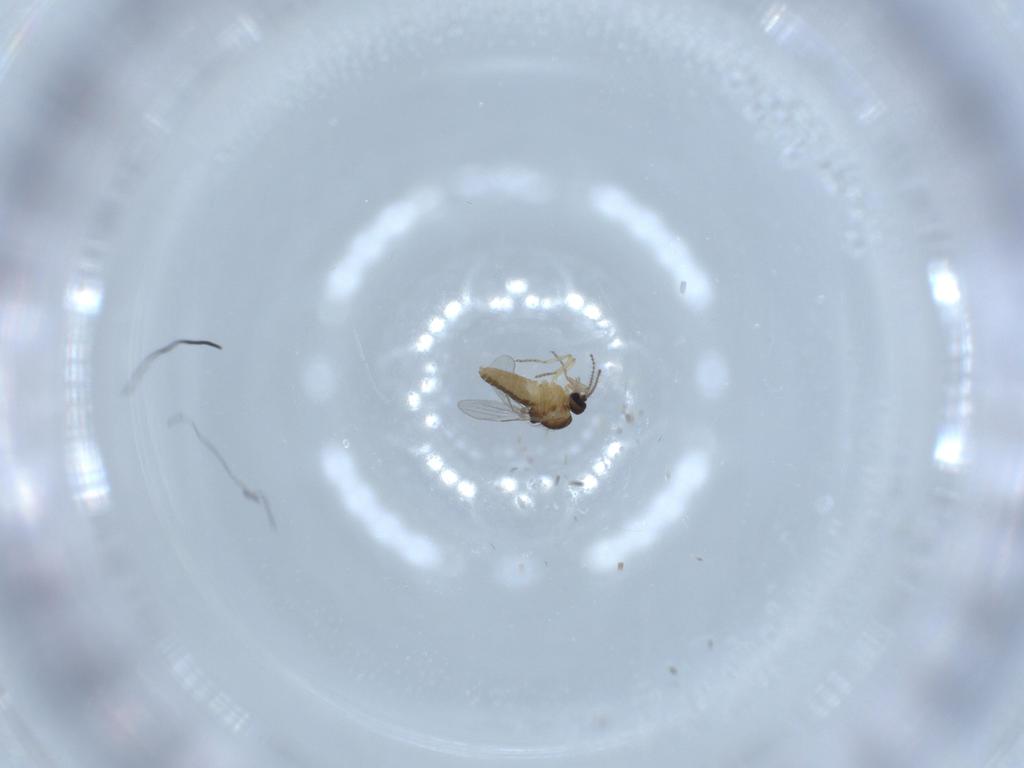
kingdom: Animalia
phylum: Arthropoda
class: Insecta
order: Diptera
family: Ceratopogonidae
